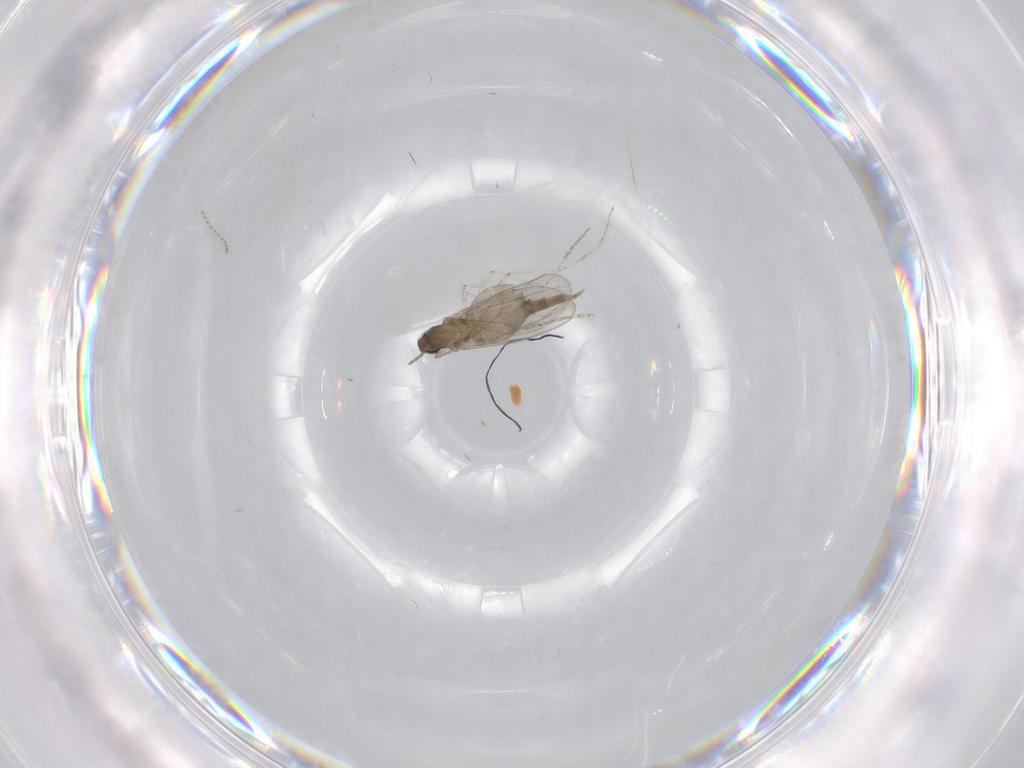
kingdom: Animalia
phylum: Arthropoda
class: Insecta
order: Diptera
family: Cecidomyiidae
